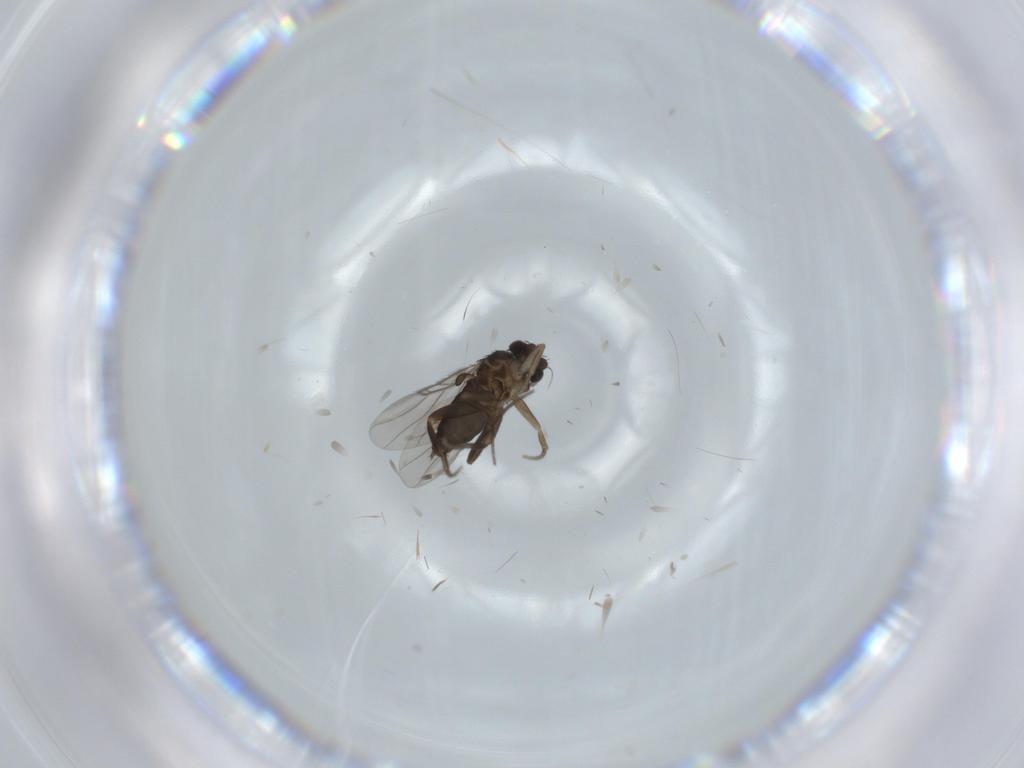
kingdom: Animalia
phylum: Arthropoda
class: Insecta
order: Diptera
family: Phoridae
